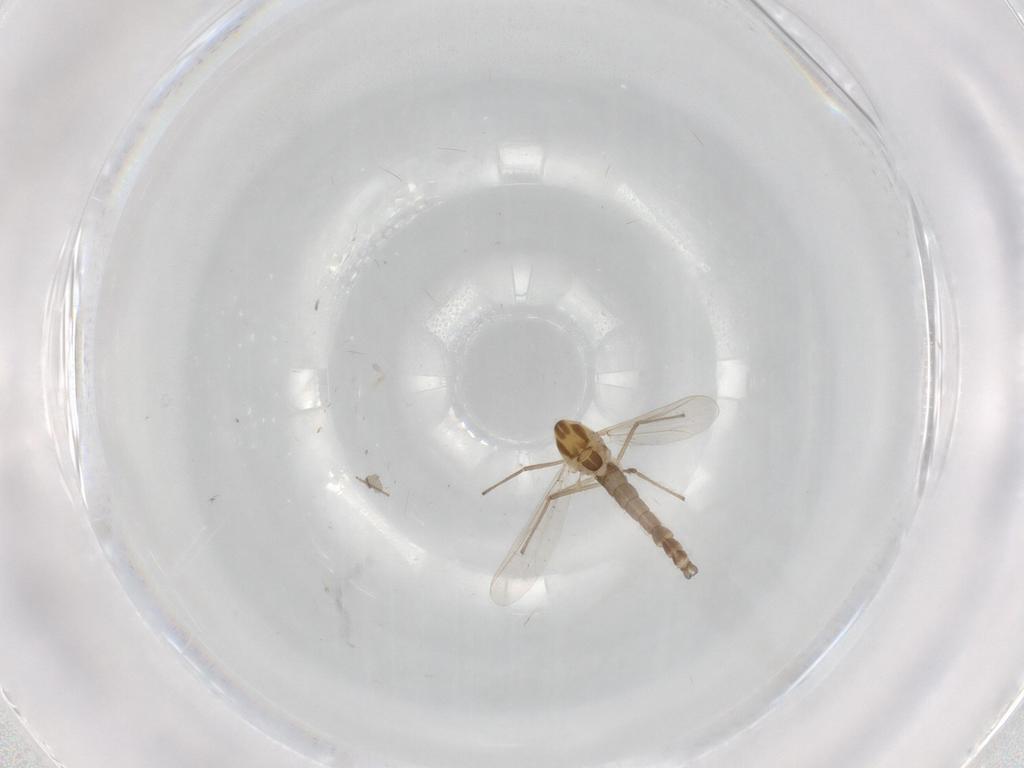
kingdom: Animalia
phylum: Arthropoda
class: Insecta
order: Diptera
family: Chironomidae
